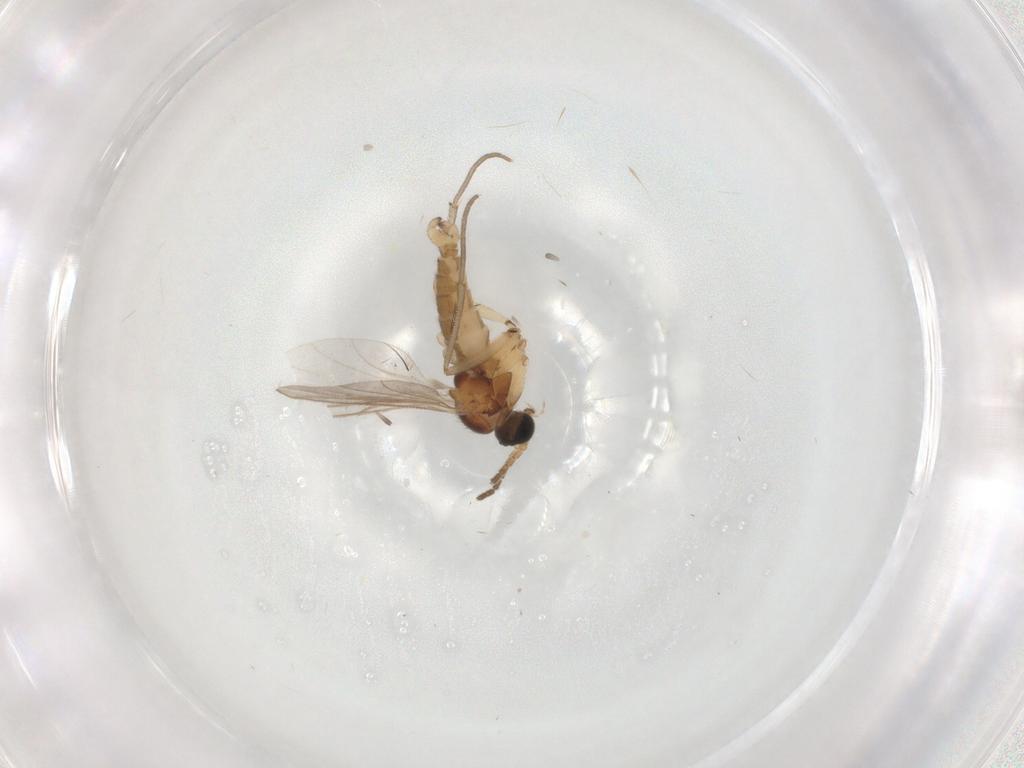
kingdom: Animalia
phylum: Arthropoda
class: Insecta
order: Diptera
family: Sciaridae
